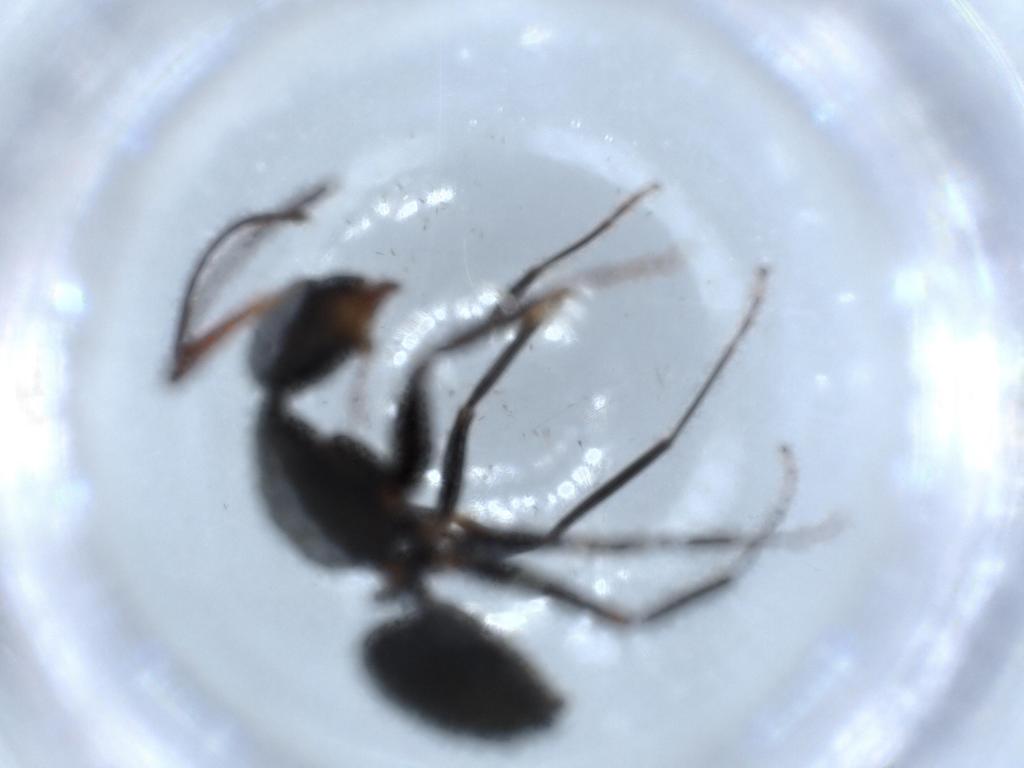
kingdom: Animalia
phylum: Arthropoda
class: Insecta
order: Hymenoptera
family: Formicidae
